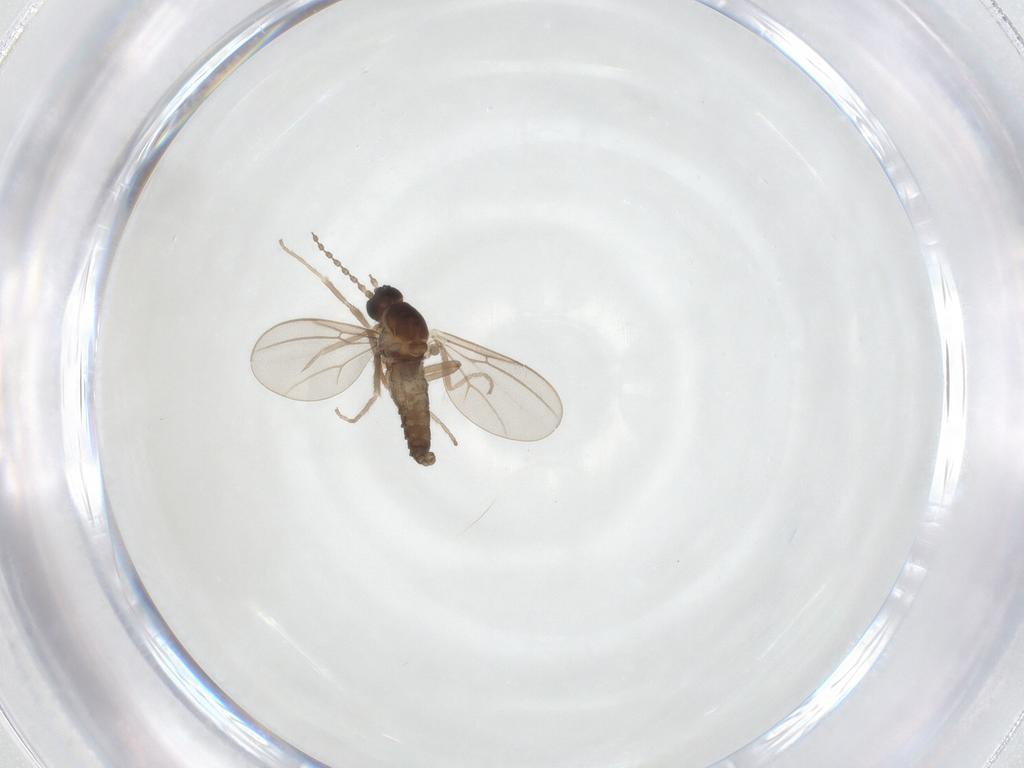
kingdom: Animalia
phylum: Arthropoda
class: Insecta
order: Diptera
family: Cecidomyiidae
